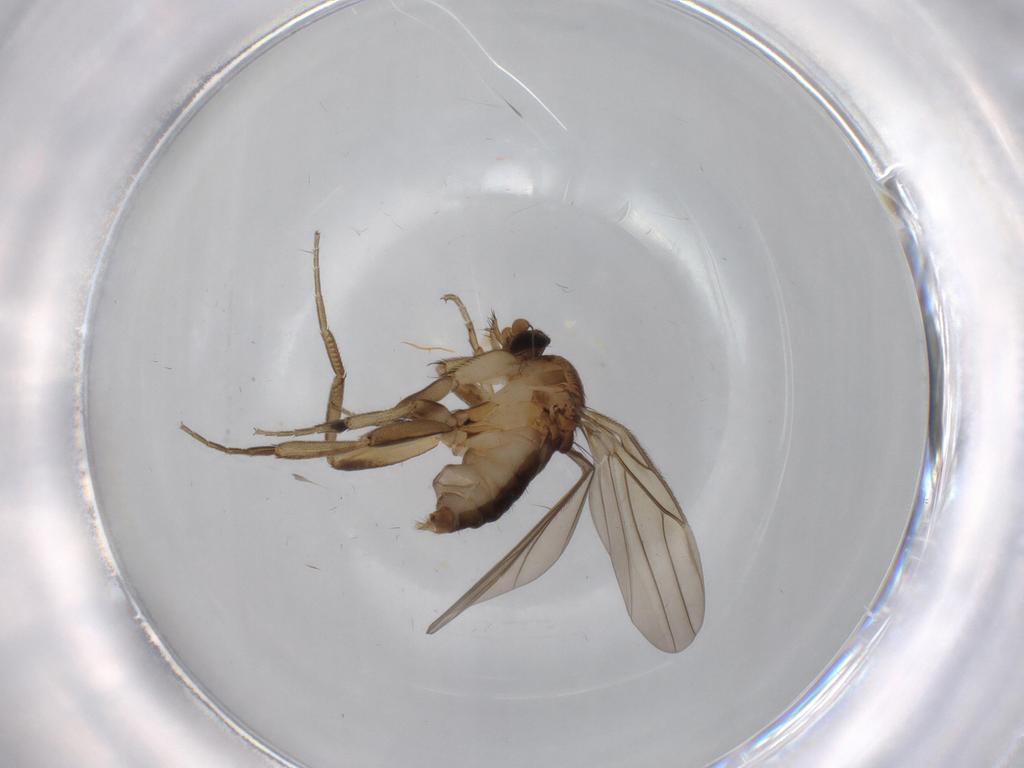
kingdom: Animalia
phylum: Arthropoda
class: Insecta
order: Diptera
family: Phoridae
